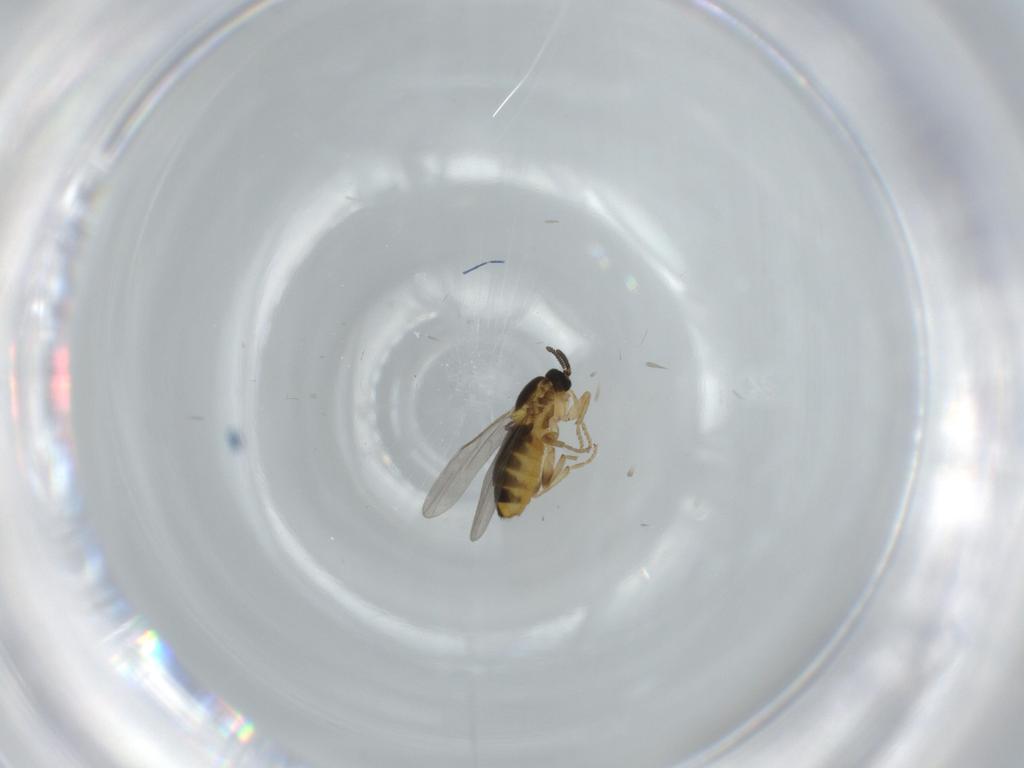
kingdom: Animalia
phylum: Arthropoda
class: Insecta
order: Diptera
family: Scatopsidae
